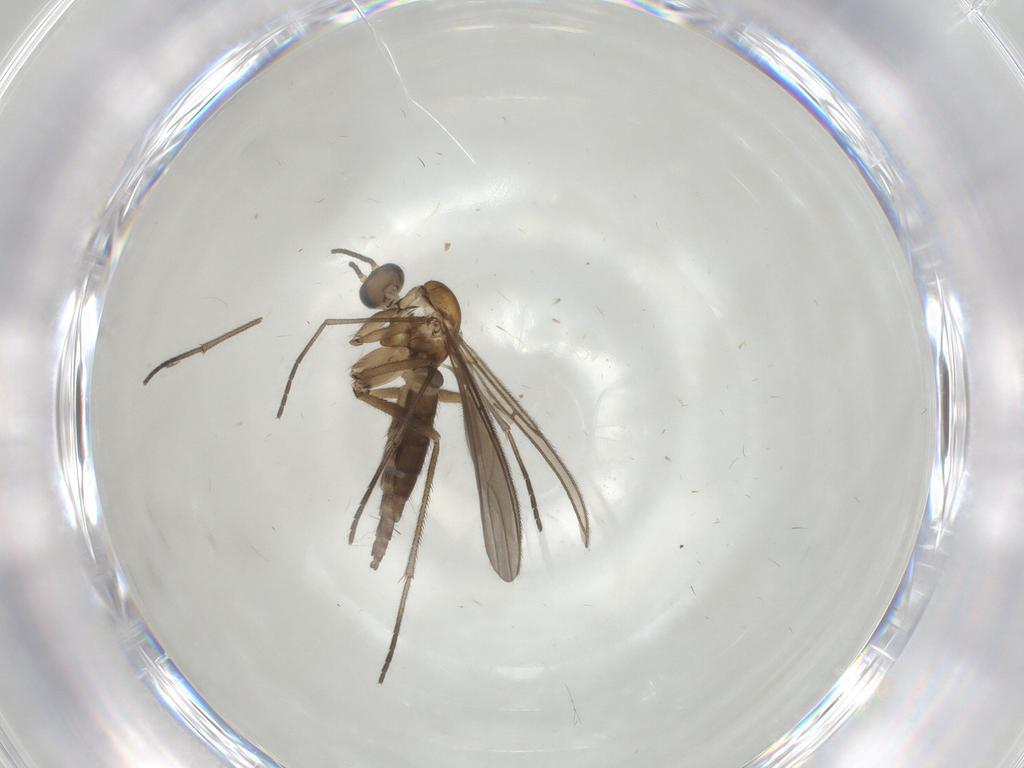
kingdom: Animalia
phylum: Arthropoda
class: Insecta
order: Diptera
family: Sciaridae
